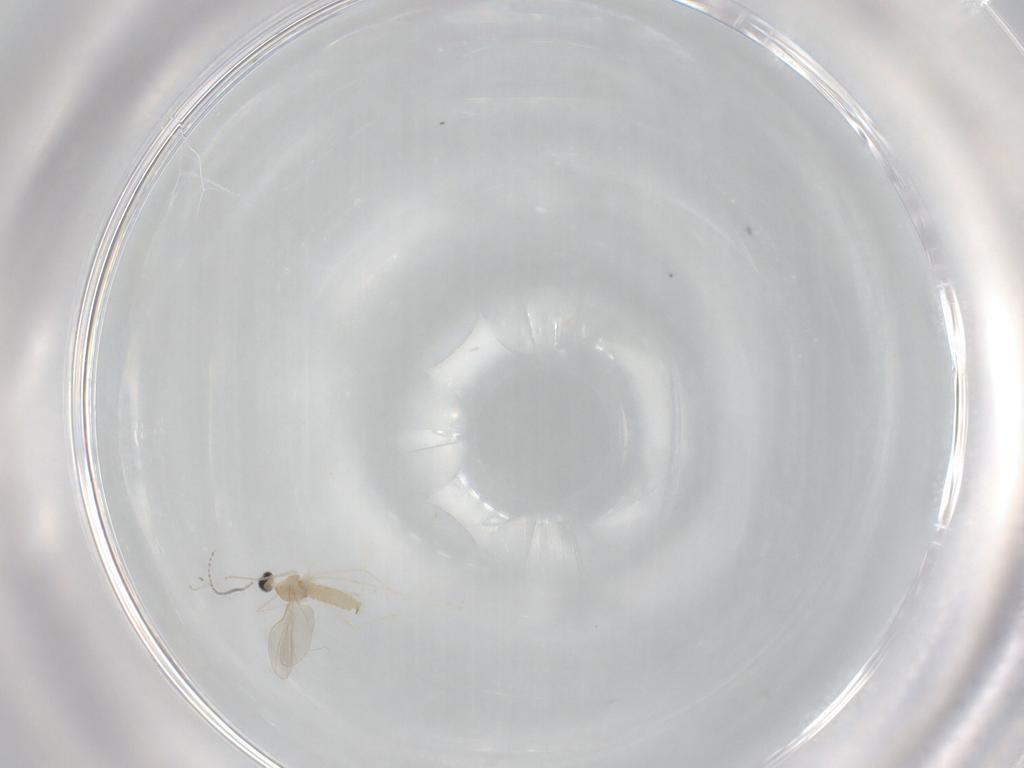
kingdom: Animalia
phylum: Arthropoda
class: Insecta
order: Diptera
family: Cecidomyiidae
